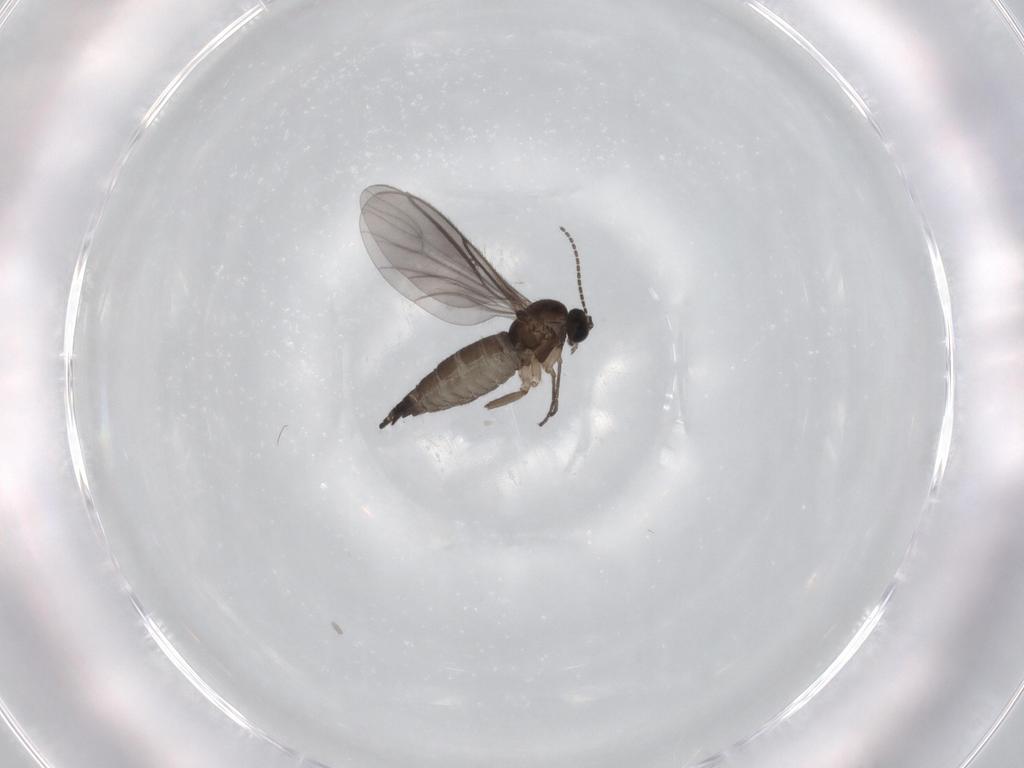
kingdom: Animalia
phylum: Arthropoda
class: Insecta
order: Diptera
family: Sciaridae
